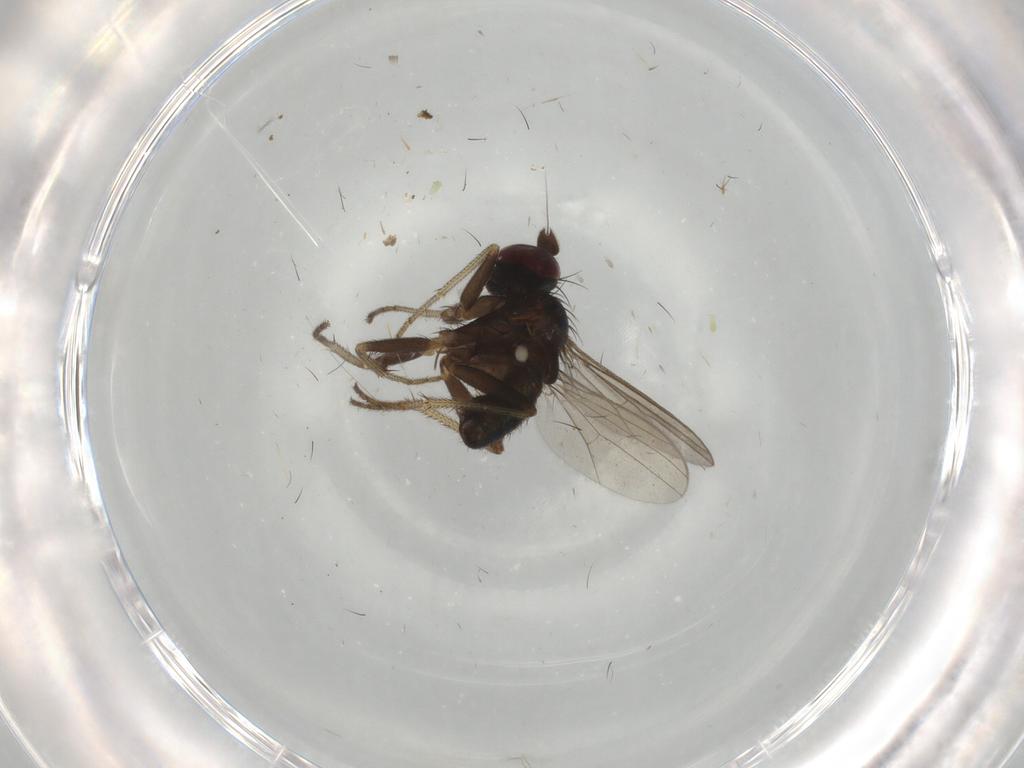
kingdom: Animalia
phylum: Arthropoda
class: Insecta
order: Diptera
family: Dolichopodidae
